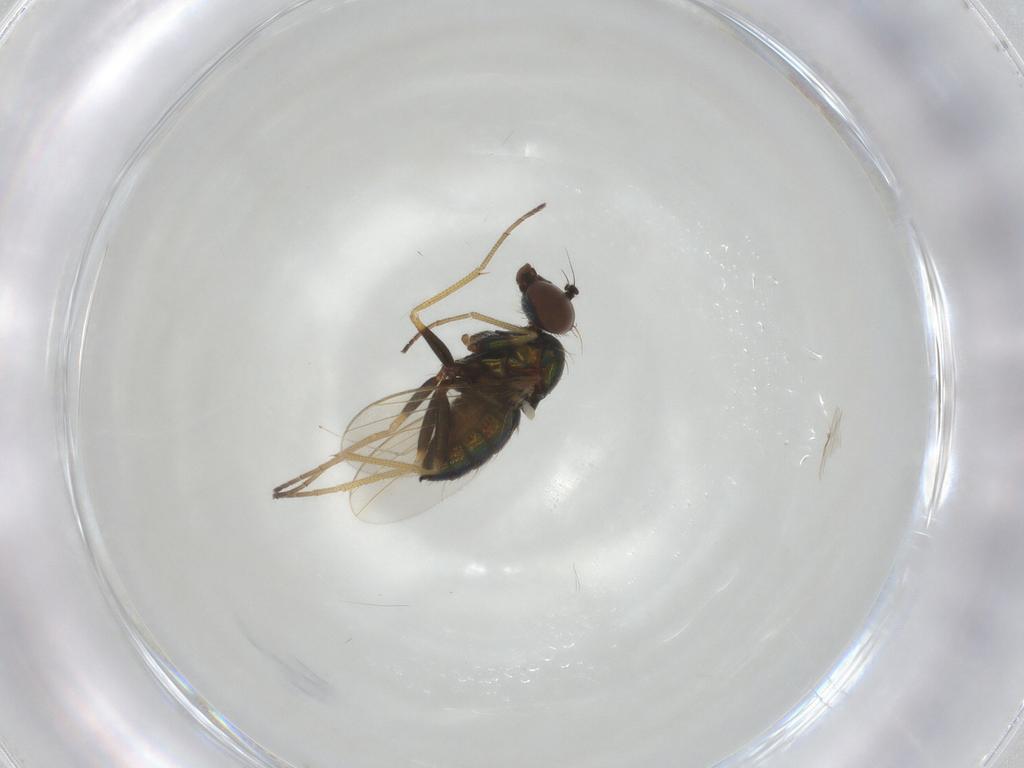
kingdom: Animalia
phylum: Arthropoda
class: Insecta
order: Diptera
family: Dolichopodidae
